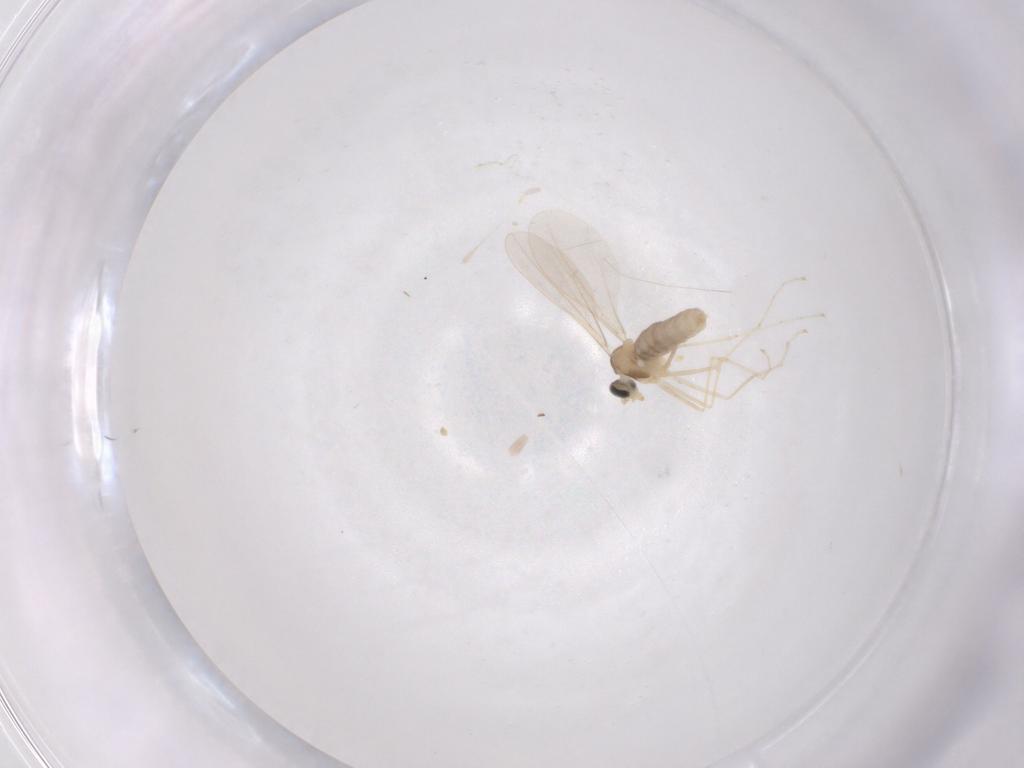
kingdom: Animalia
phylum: Arthropoda
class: Insecta
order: Diptera
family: Cecidomyiidae
